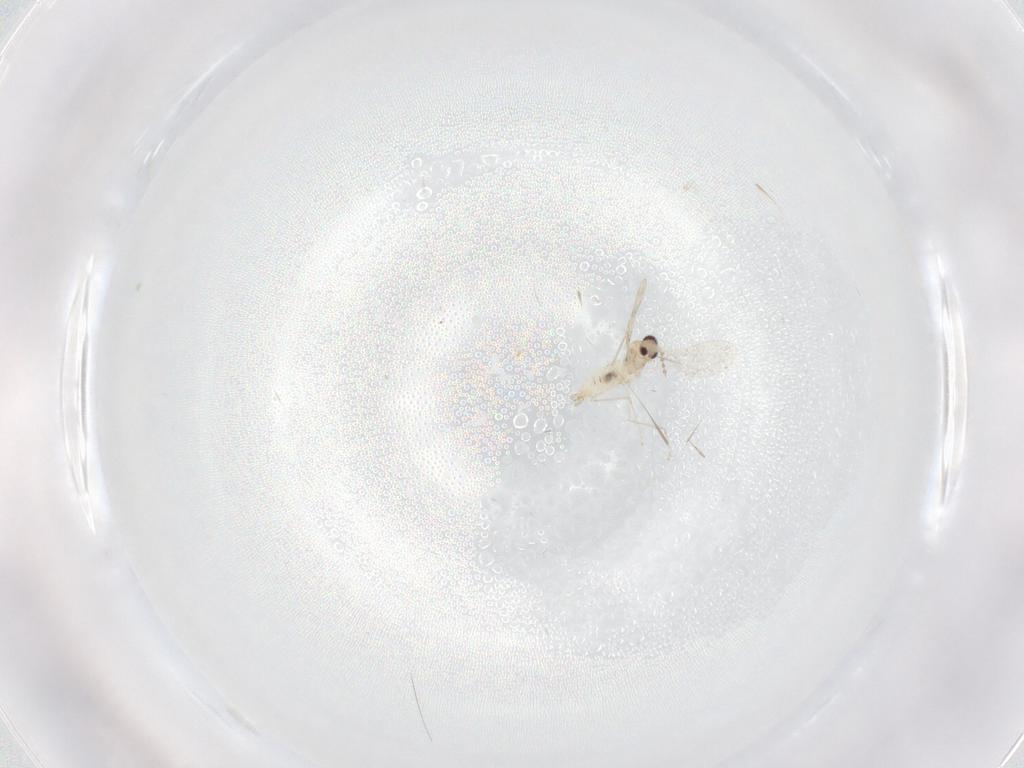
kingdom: Animalia
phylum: Arthropoda
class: Insecta
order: Diptera
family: Cecidomyiidae
